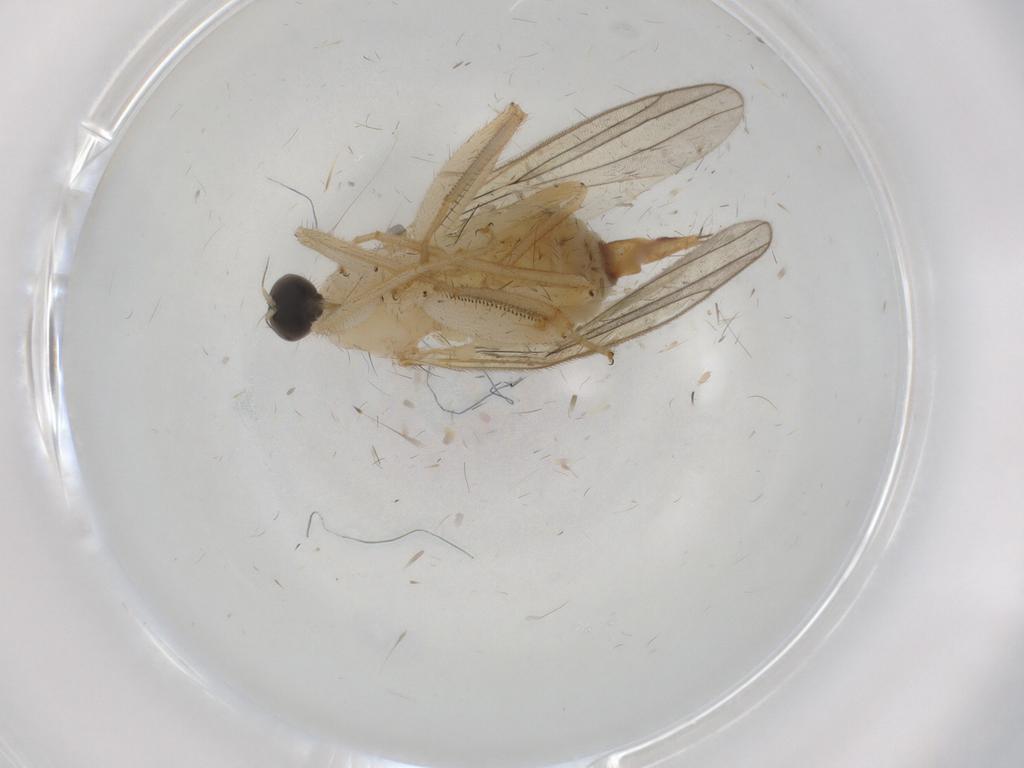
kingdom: Animalia
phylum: Arthropoda
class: Insecta
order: Diptera
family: Hybotidae
